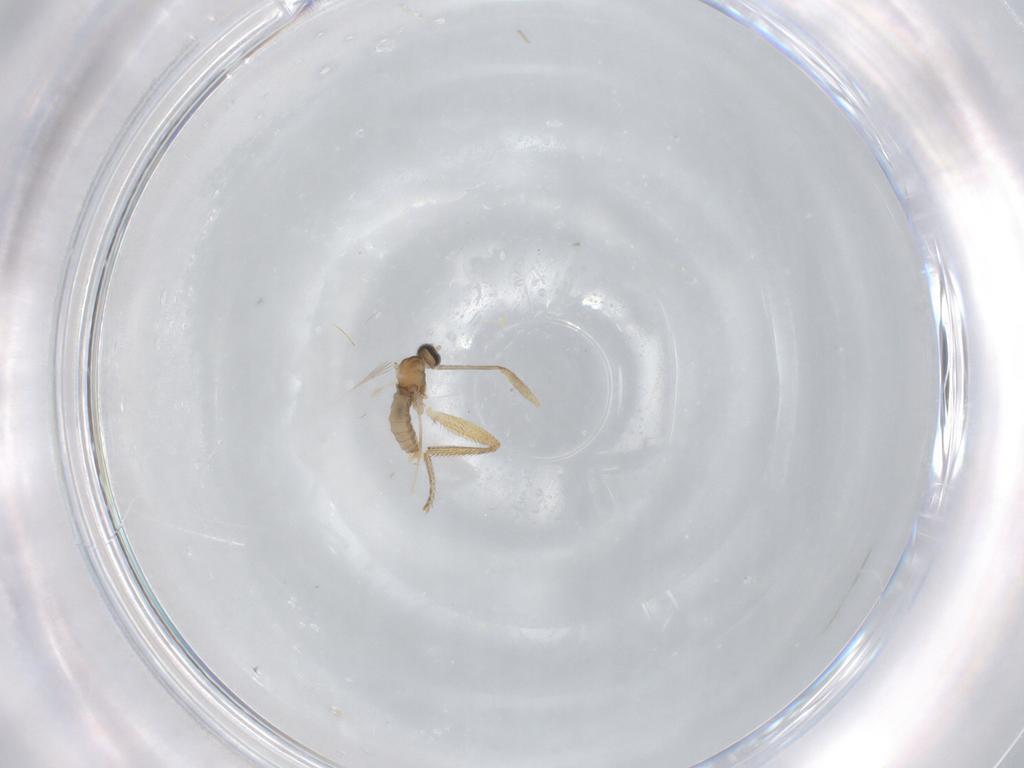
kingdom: Animalia
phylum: Arthropoda
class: Insecta
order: Diptera
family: Drosophilidae
